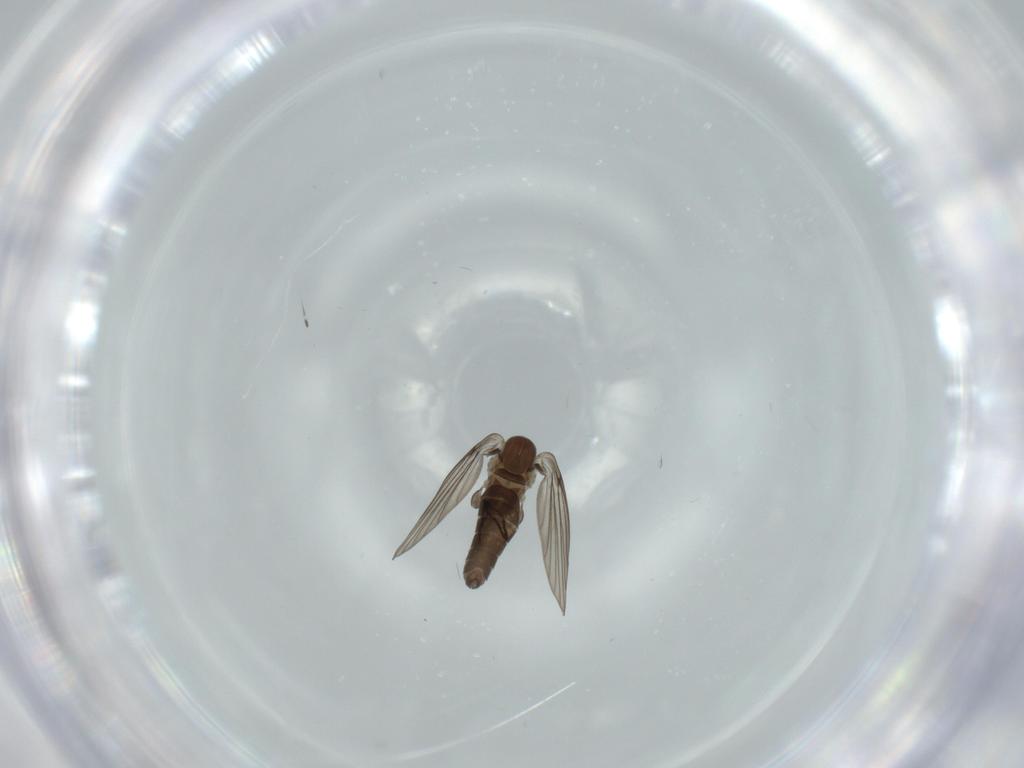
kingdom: Animalia
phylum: Arthropoda
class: Insecta
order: Diptera
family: Psychodidae
